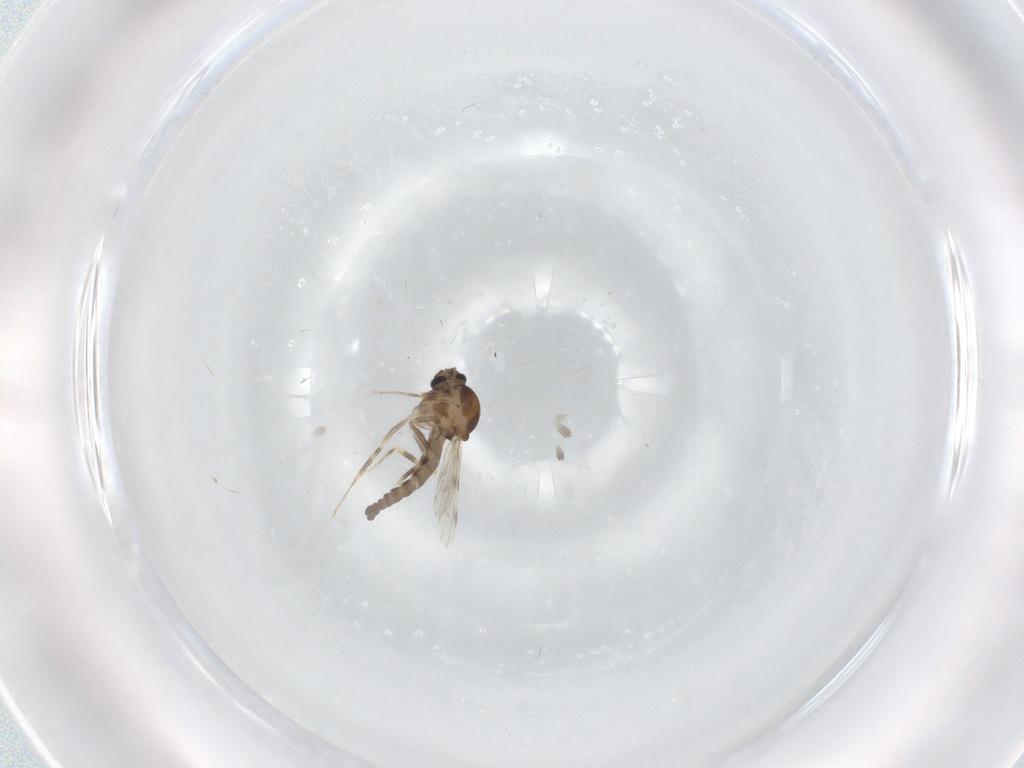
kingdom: Animalia
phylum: Arthropoda
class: Insecta
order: Diptera
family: Ceratopogonidae
